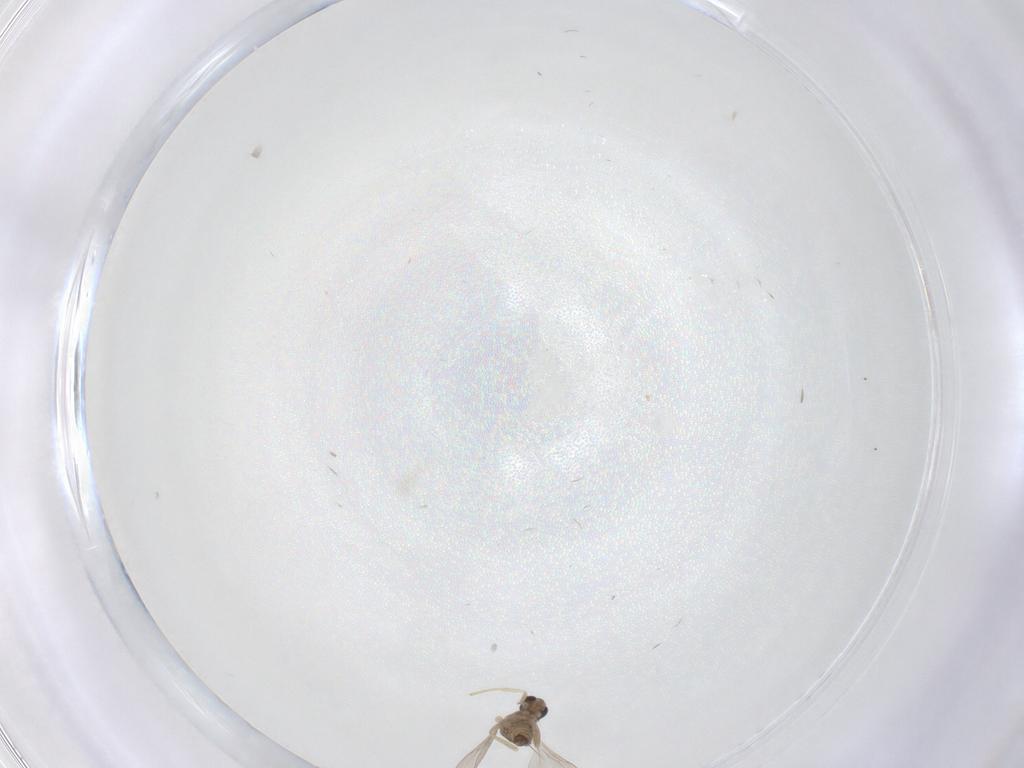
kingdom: Animalia
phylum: Arthropoda
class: Insecta
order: Diptera
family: Cecidomyiidae
